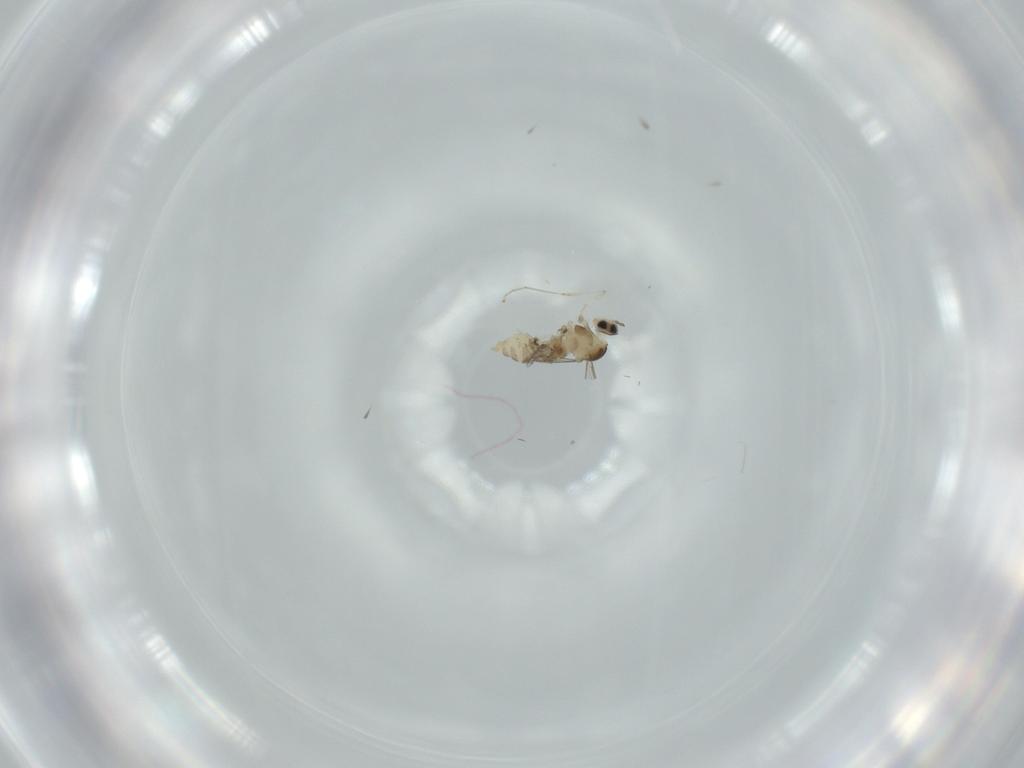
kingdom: Animalia
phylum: Arthropoda
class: Insecta
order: Diptera
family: Cecidomyiidae
